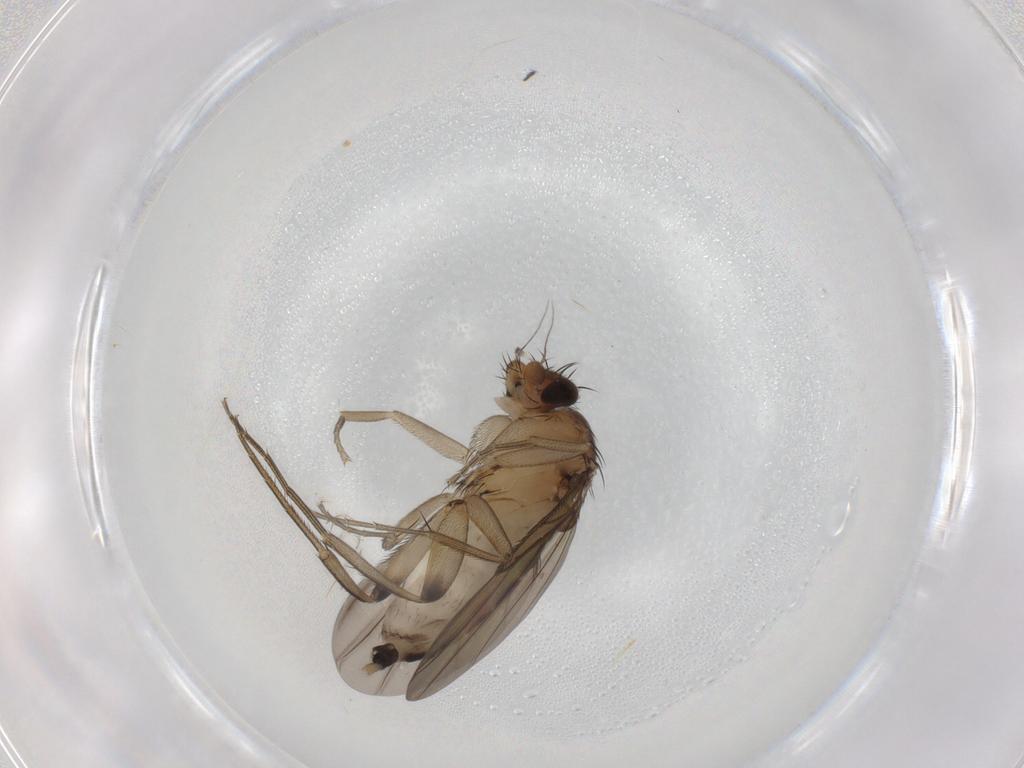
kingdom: Animalia
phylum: Arthropoda
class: Insecta
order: Diptera
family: Phoridae
